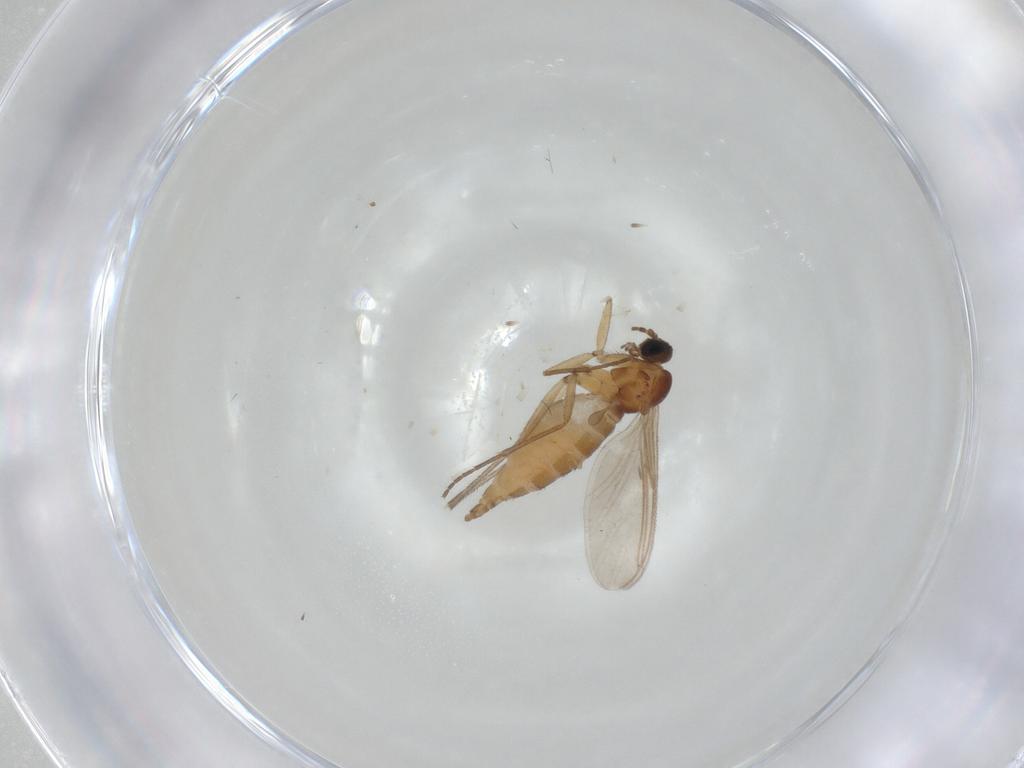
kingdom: Animalia
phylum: Arthropoda
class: Insecta
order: Diptera
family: Sciaridae
